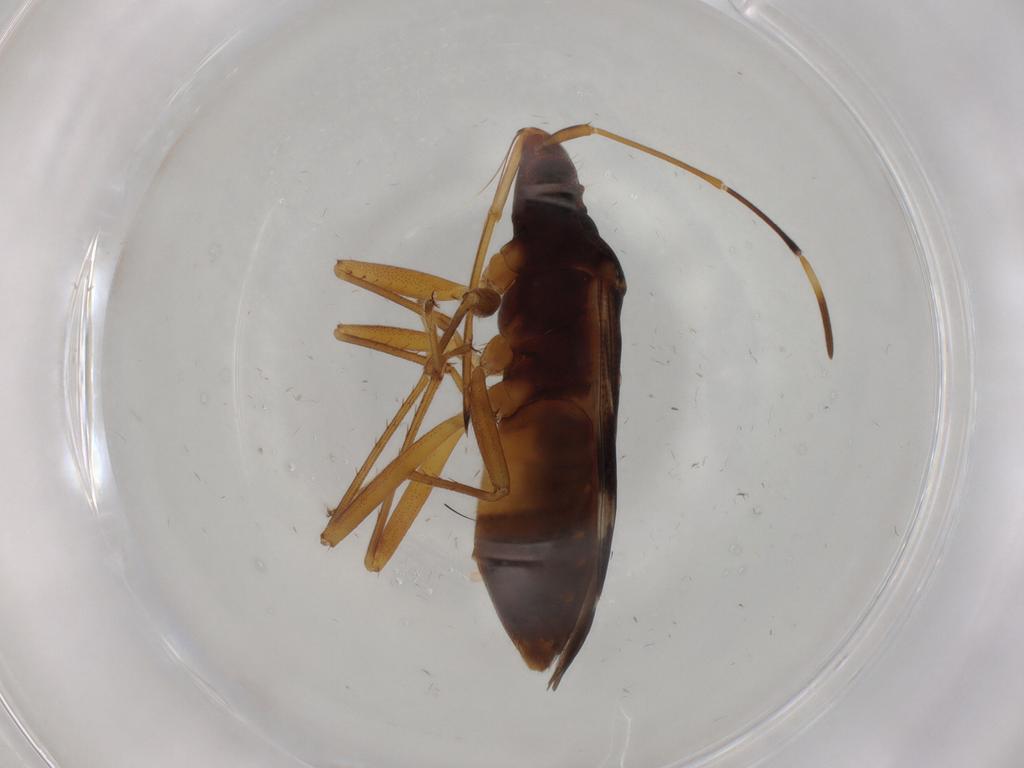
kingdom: Animalia
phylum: Arthropoda
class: Insecta
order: Hemiptera
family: Rhyparochromidae
